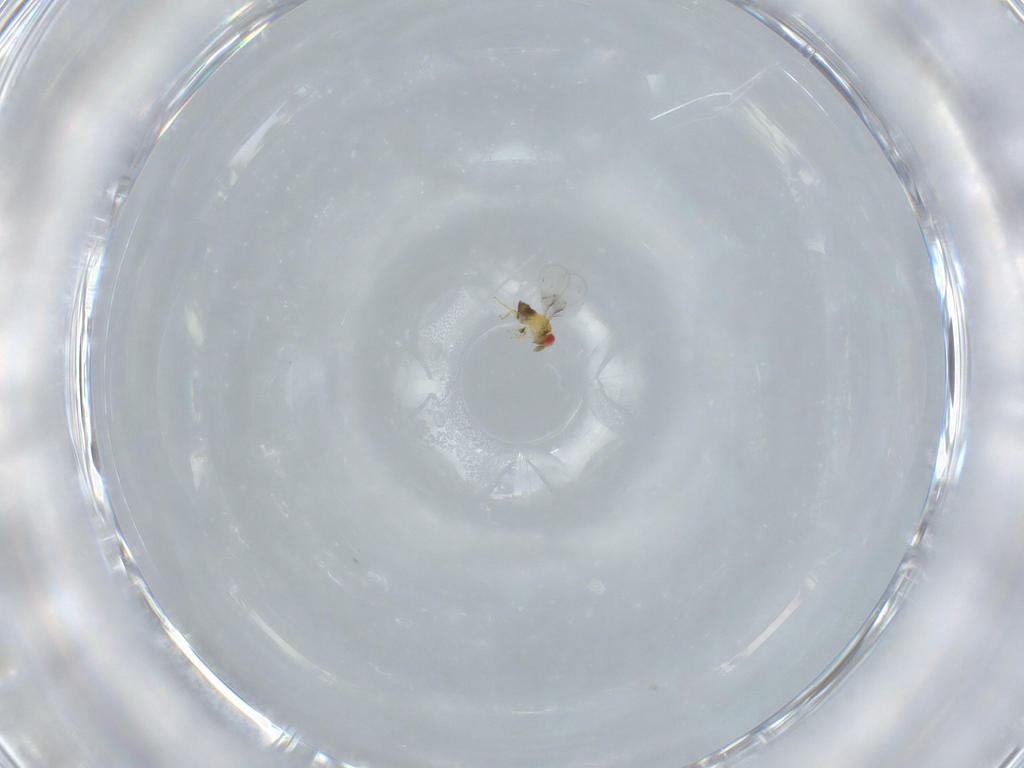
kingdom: Animalia
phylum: Arthropoda
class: Insecta
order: Hymenoptera
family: Trichogrammatidae
